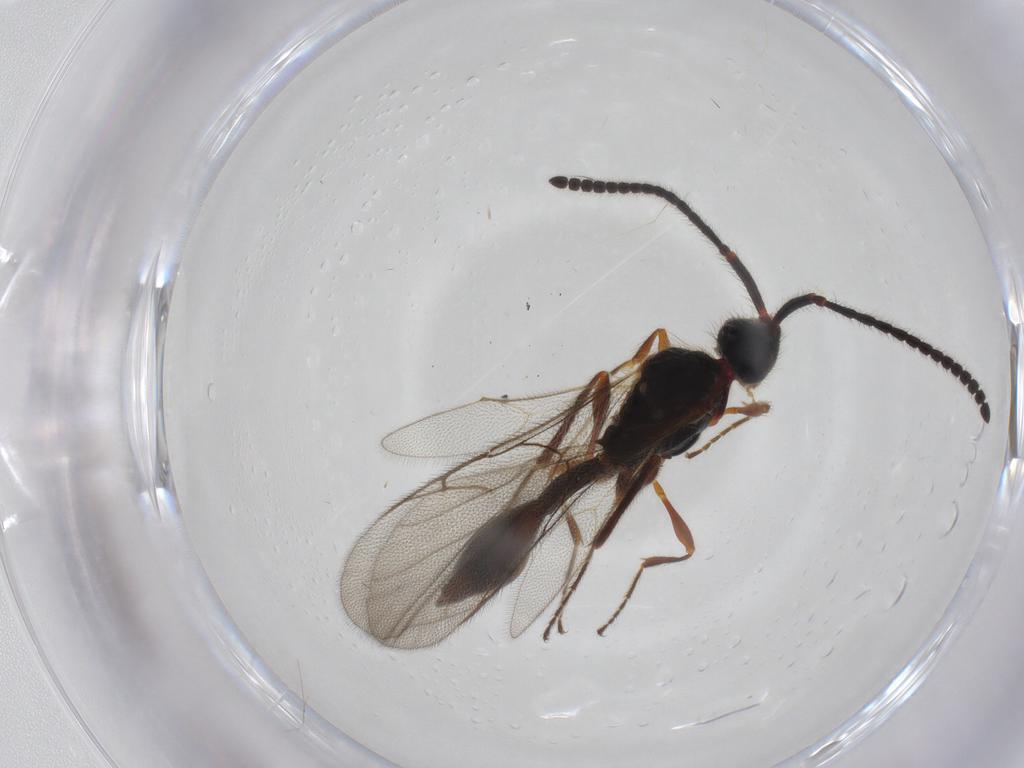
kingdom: Animalia
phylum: Arthropoda
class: Insecta
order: Hymenoptera
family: Diapriidae
